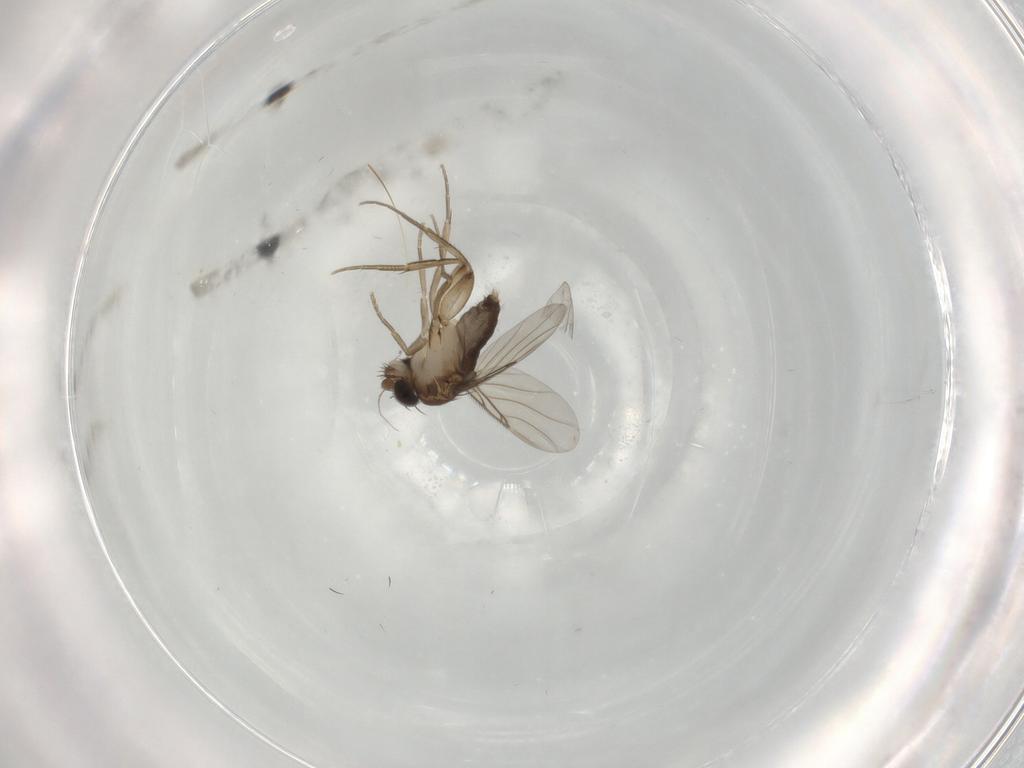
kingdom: Animalia
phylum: Arthropoda
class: Insecta
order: Diptera
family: Phoridae
